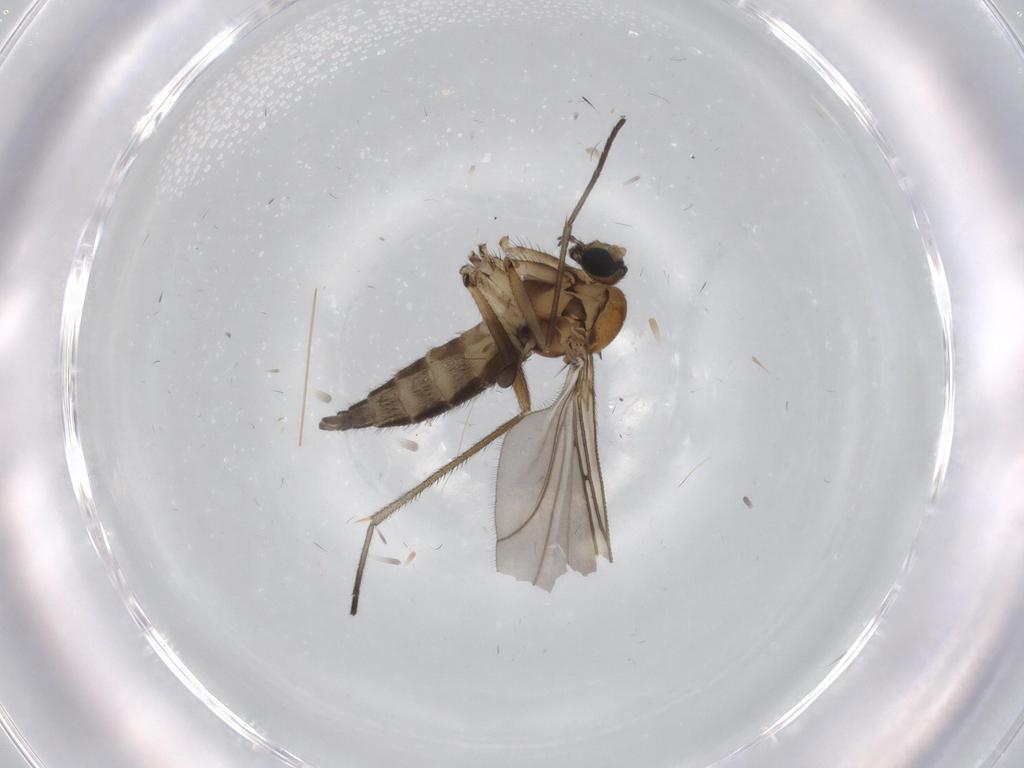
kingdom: Animalia
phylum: Arthropoda
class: Insecta
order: Diptera
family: Sciaridae
